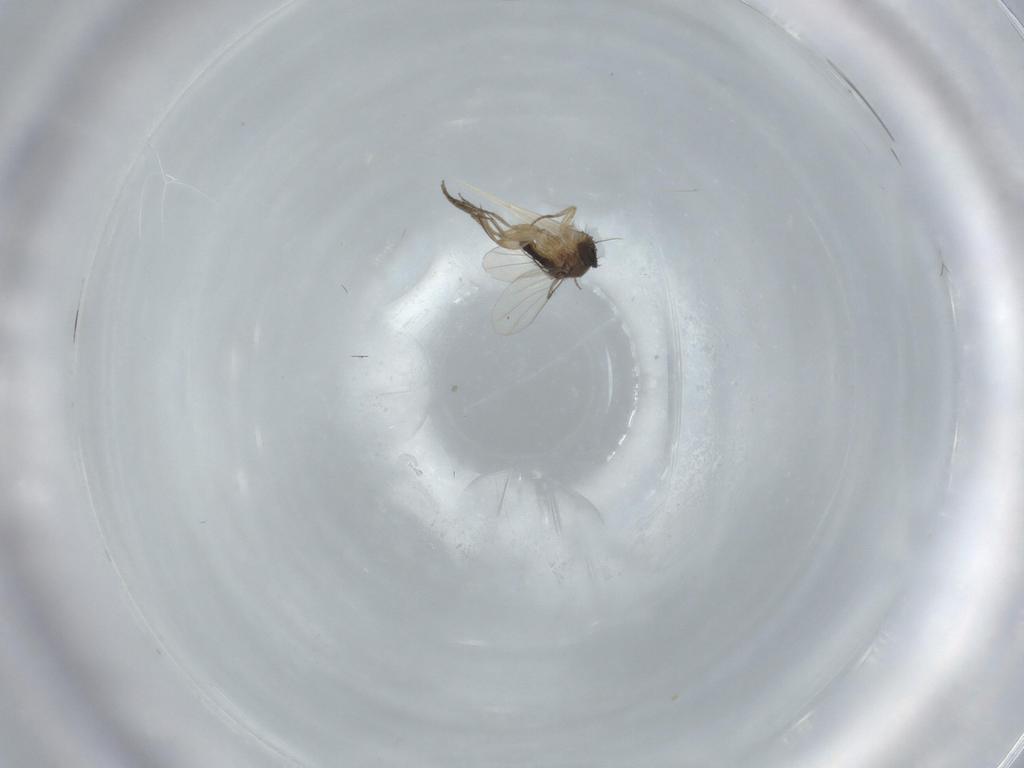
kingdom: Animalia
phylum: Arthropoda
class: Insecta
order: Diptera
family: Phoridae
